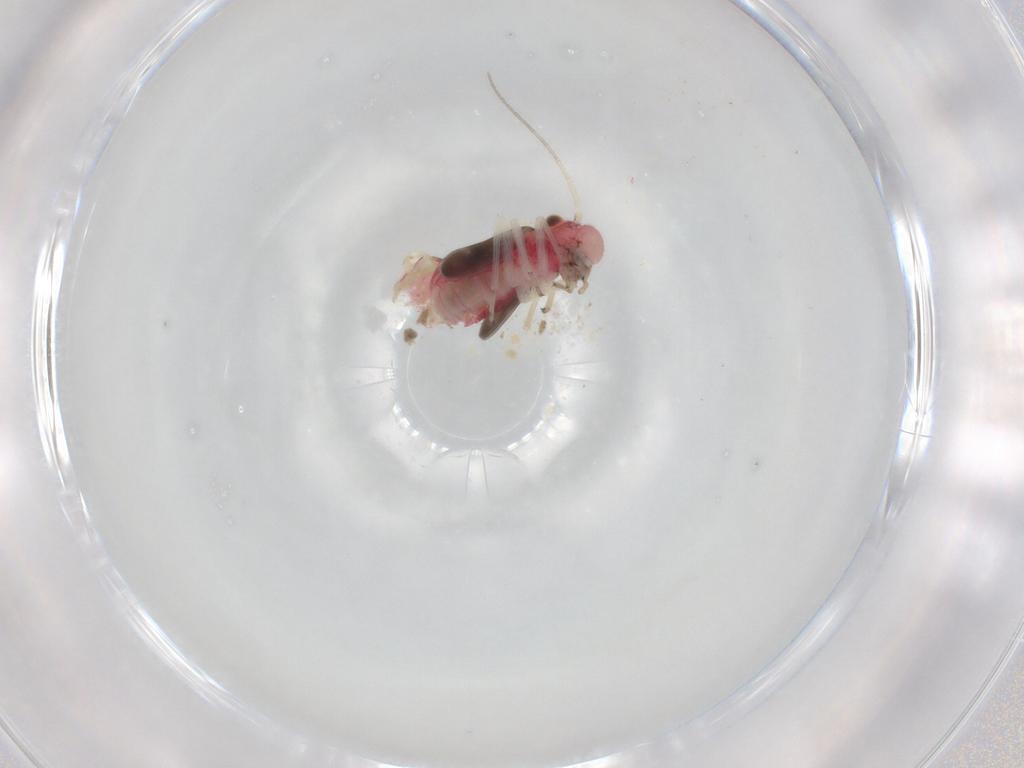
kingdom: Animalia
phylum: Arthropoda
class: Insecta
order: Psocodea
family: Caeciliusidae
